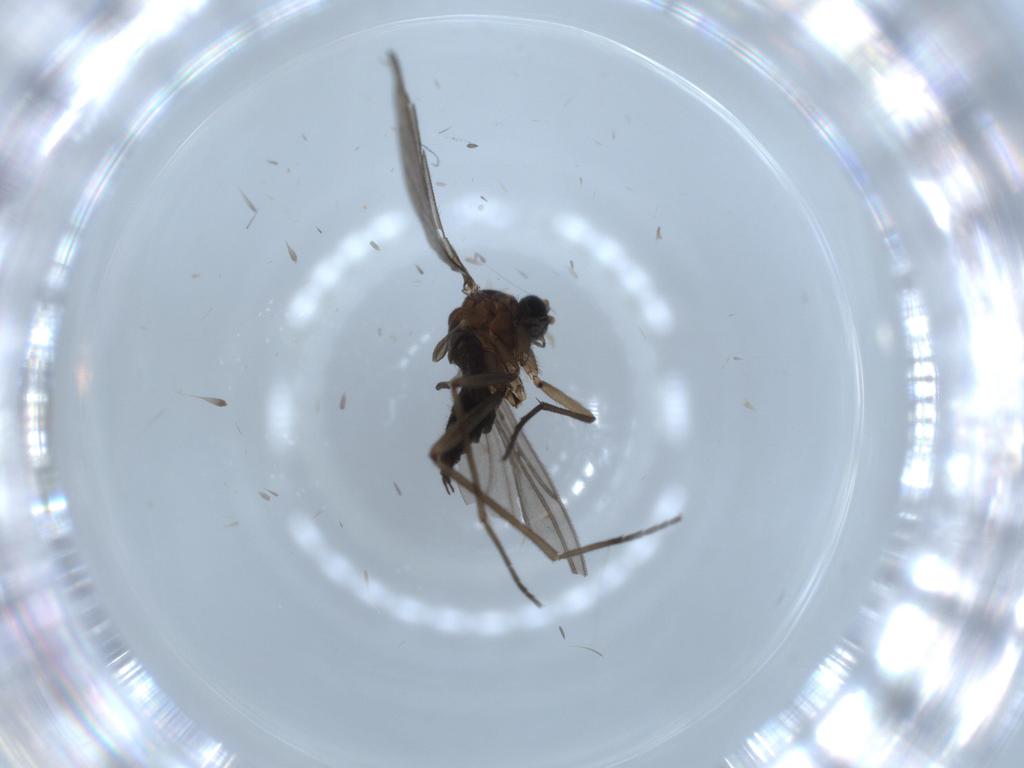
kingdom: Animalia
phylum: Arthropoda
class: Insecta
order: Diptera
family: Sciaridae
